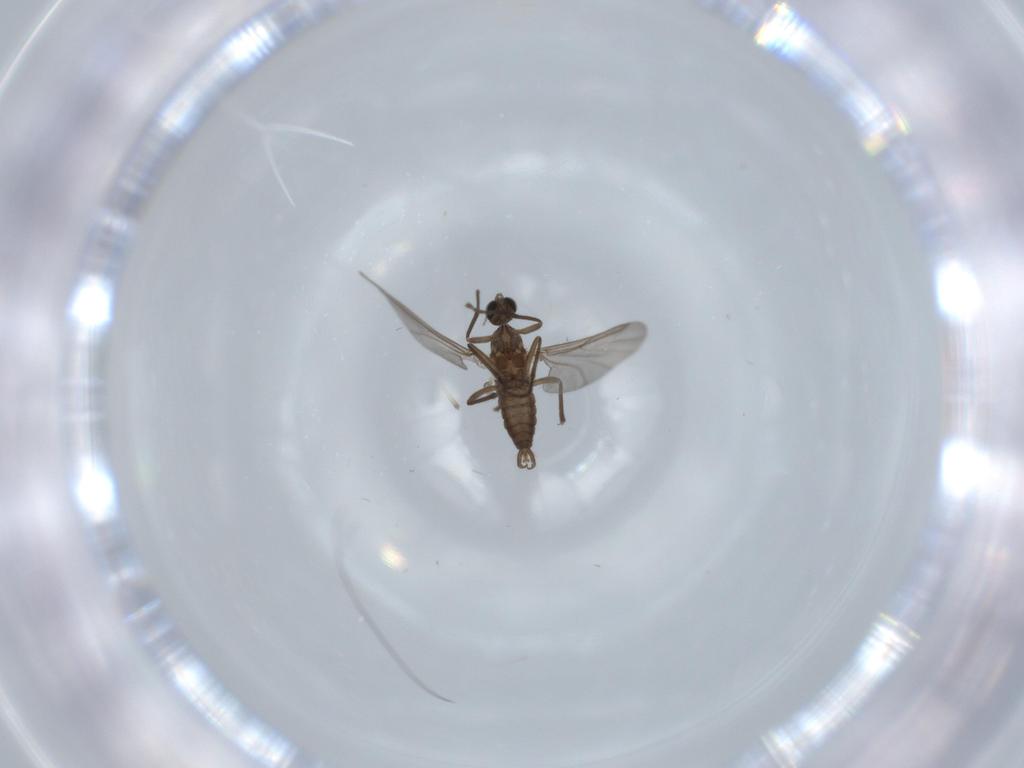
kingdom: Animalia
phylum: Arthropoda
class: Insecta
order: Diptera
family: Cecidomyiidae
